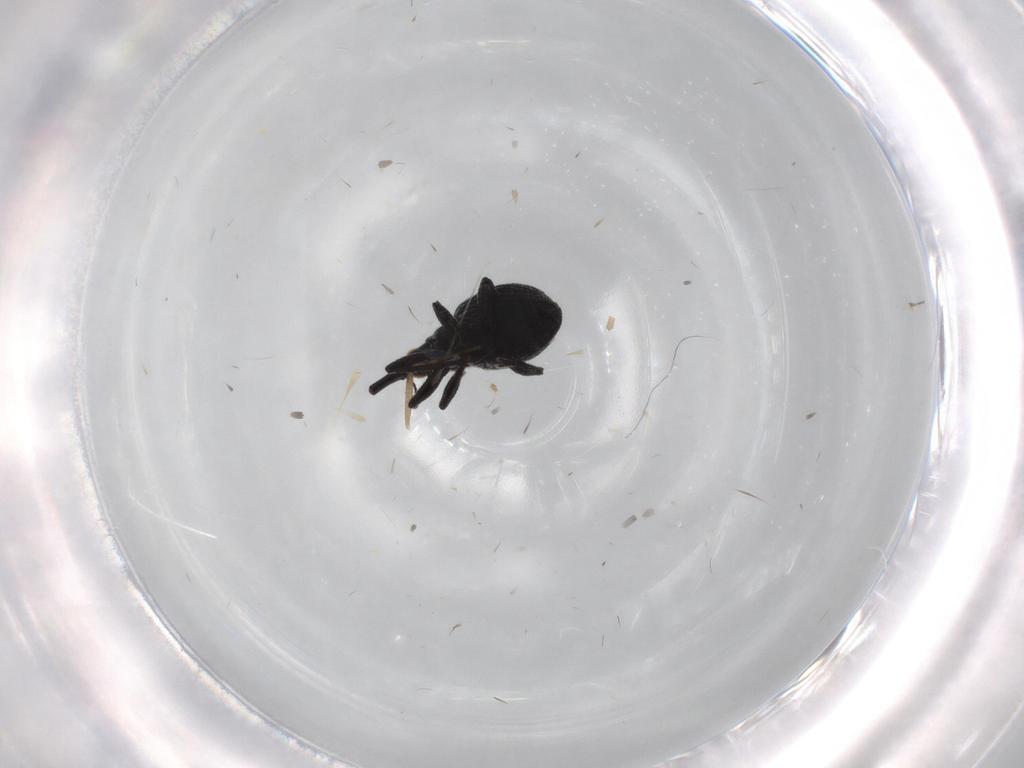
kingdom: Animalia
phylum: Arthropoda
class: Insecta
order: Coleoptera
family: Brentidae
